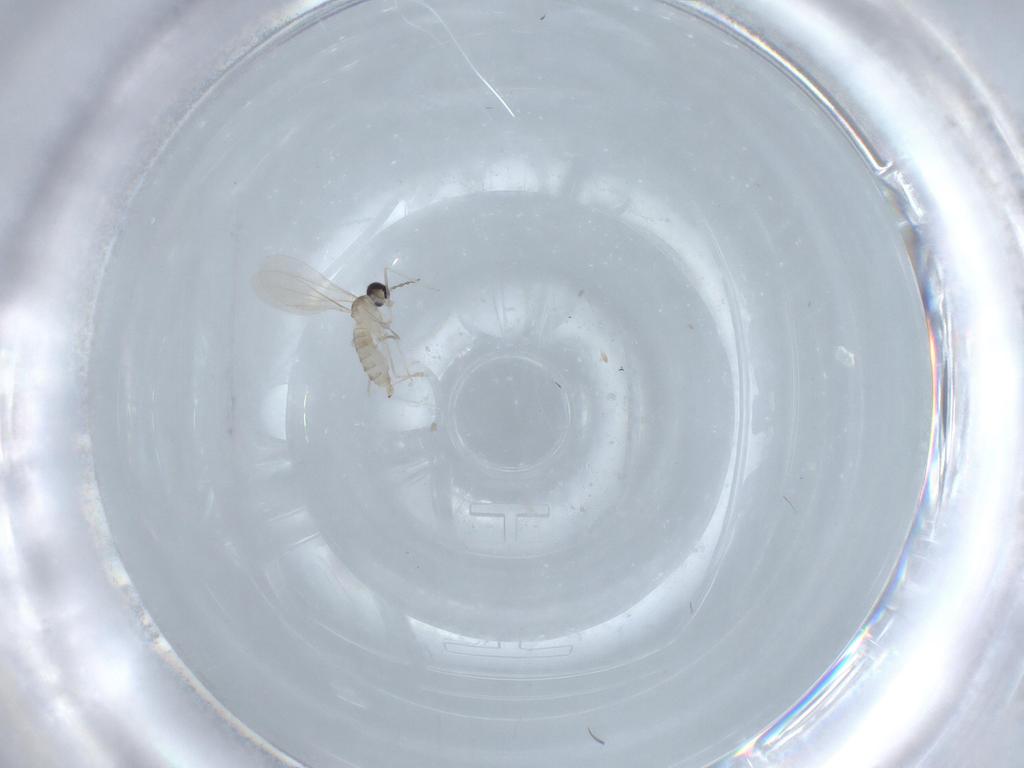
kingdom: Animalia
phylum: Arthropoda
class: Insecta
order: Diptera
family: Cecidomyiidae
